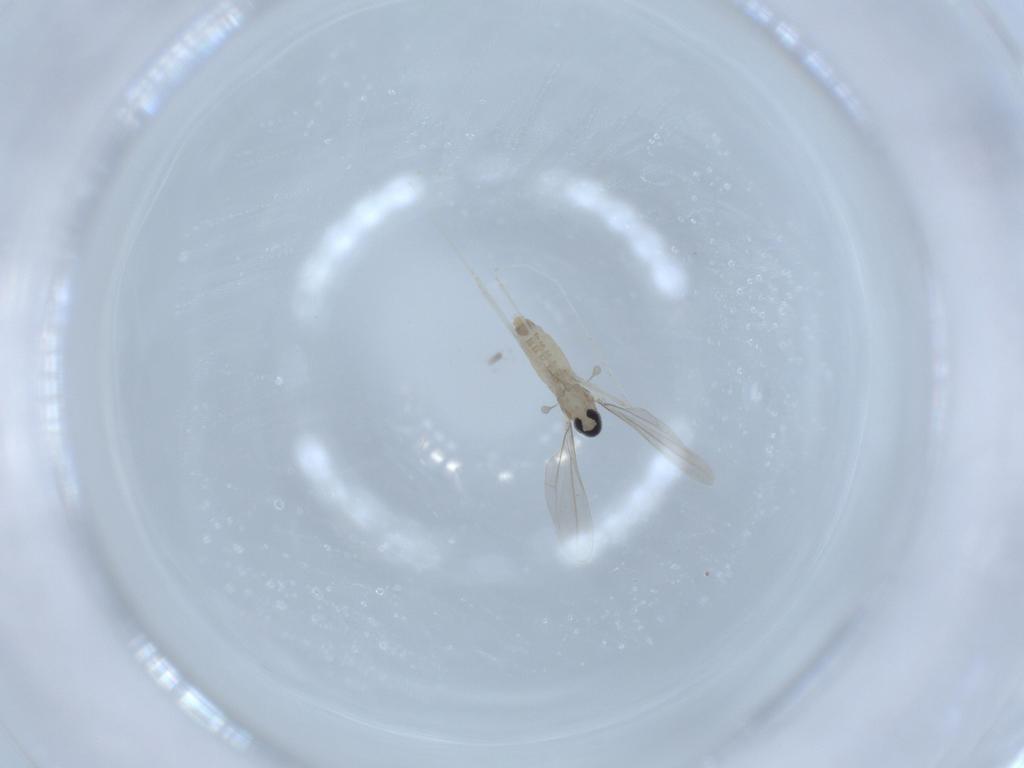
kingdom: Animalia
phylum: Arthropoda
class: Insecta
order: Diptera
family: Cecidomyiidae
